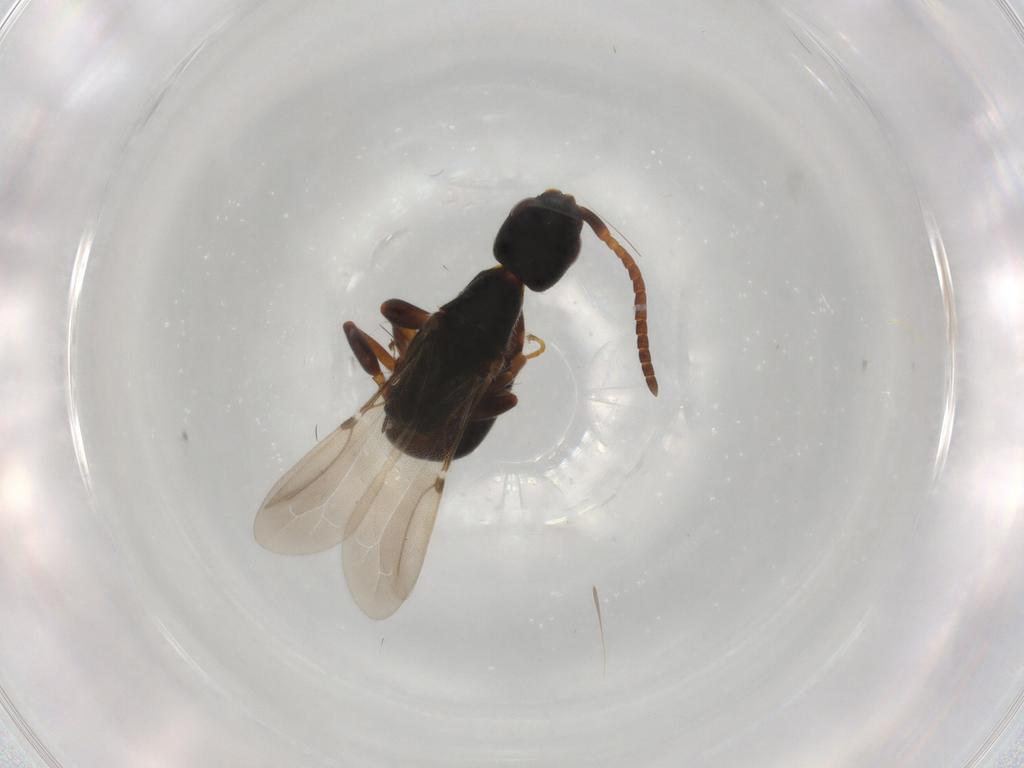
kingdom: Animalia
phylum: Arthropoda
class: Insecta
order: Hymenoptera
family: Bethylidae
